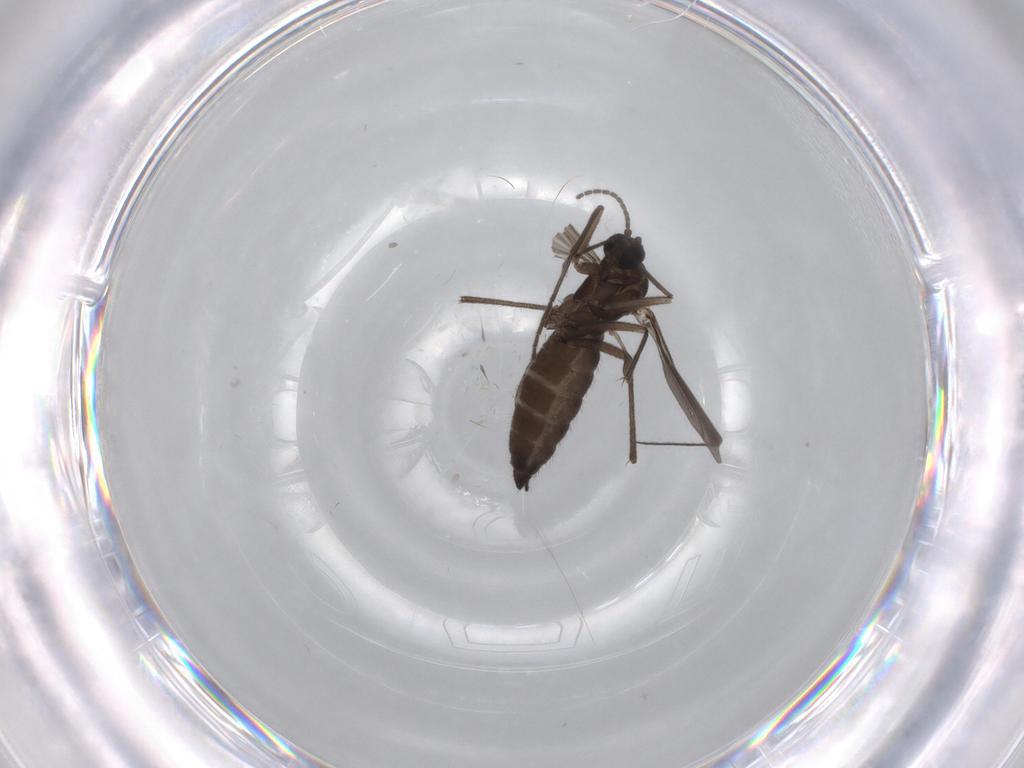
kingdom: Animalia
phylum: Arthropoda
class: Insecta
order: Diptera
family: Sciaridae
